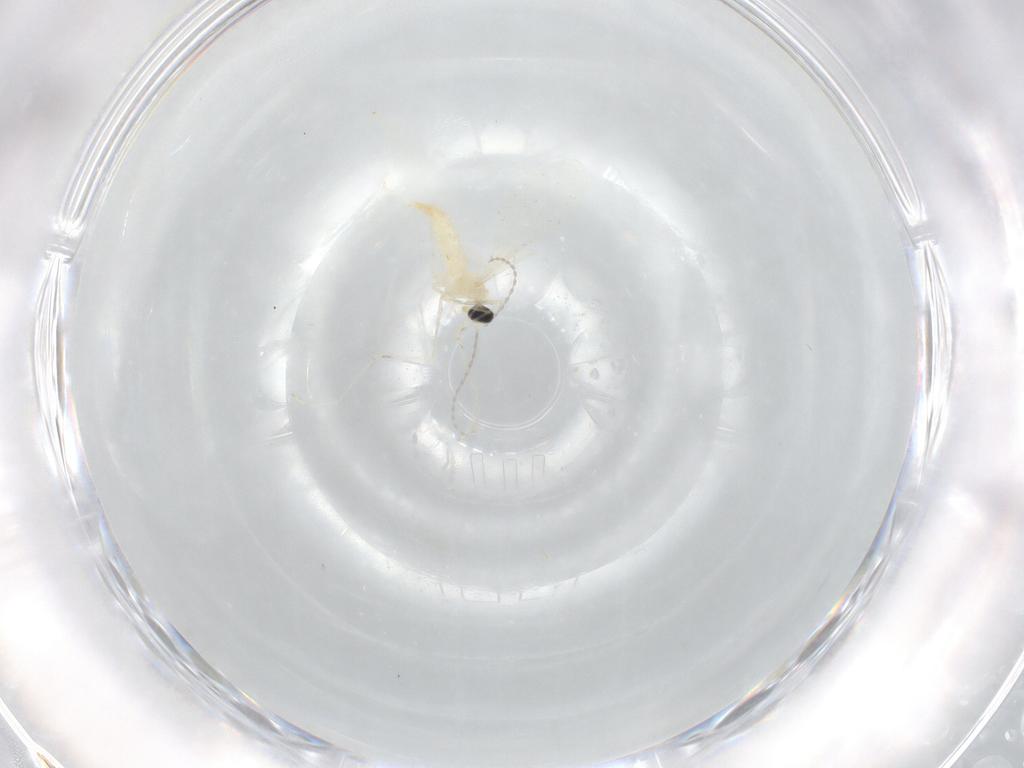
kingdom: Animalia
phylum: Arthropoda
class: Insecta
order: Diptera
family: Cecidomyiidae
